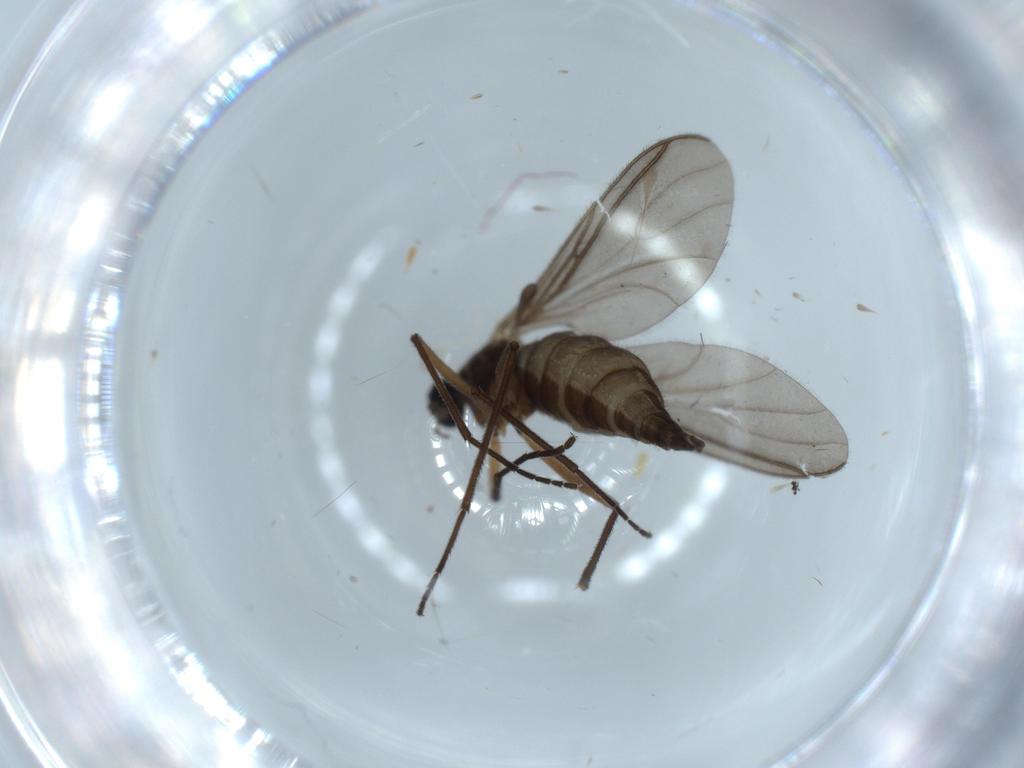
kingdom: Animalia
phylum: Arthropoda
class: Insecta
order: Diptera
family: Sciaridae
